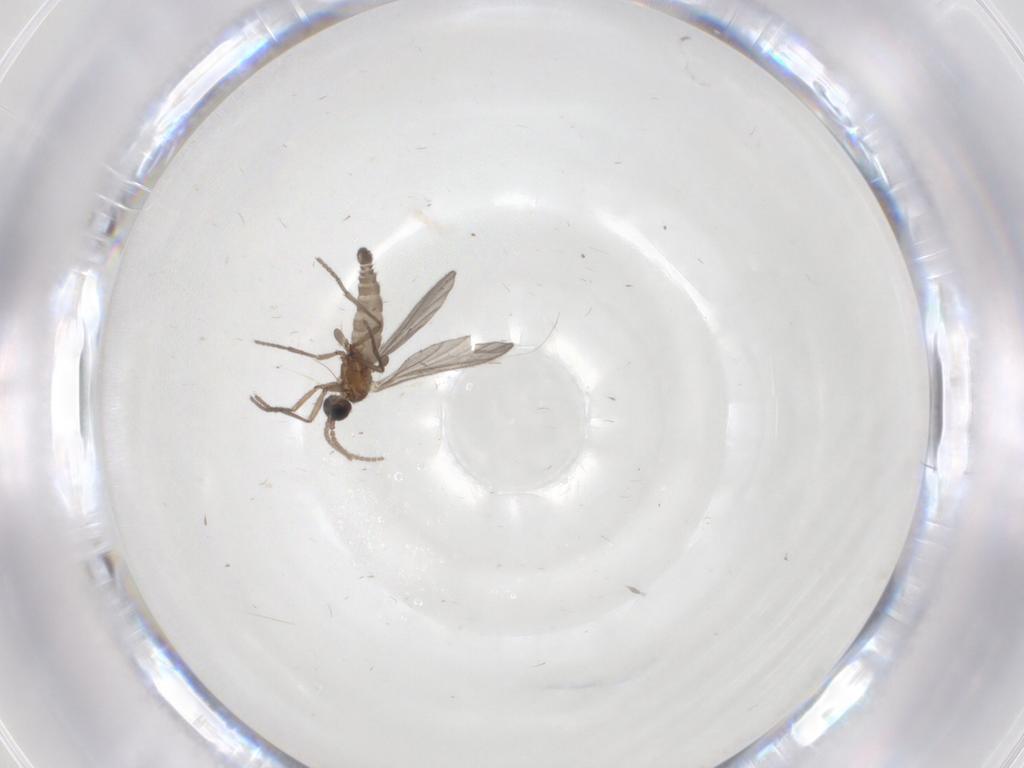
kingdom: Animalia
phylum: Arthropoda
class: Insecta
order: Diptera
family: Sciaridae
